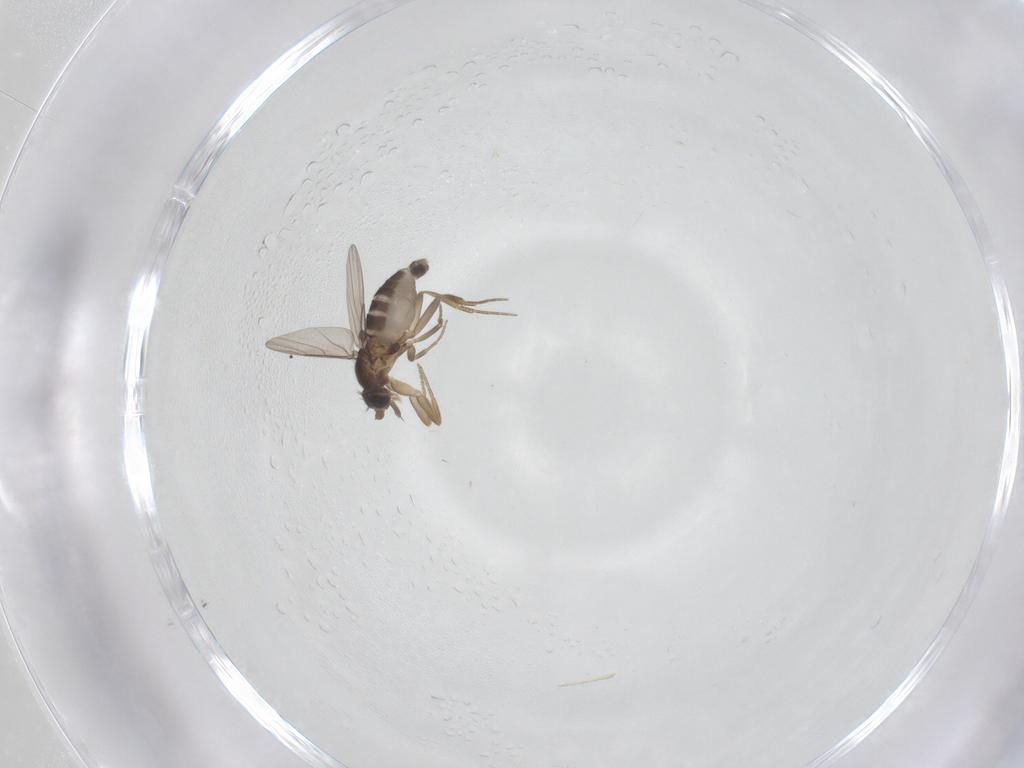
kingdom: Animalia
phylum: Arthropoda
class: Insecta
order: Diptera
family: Phoridae
